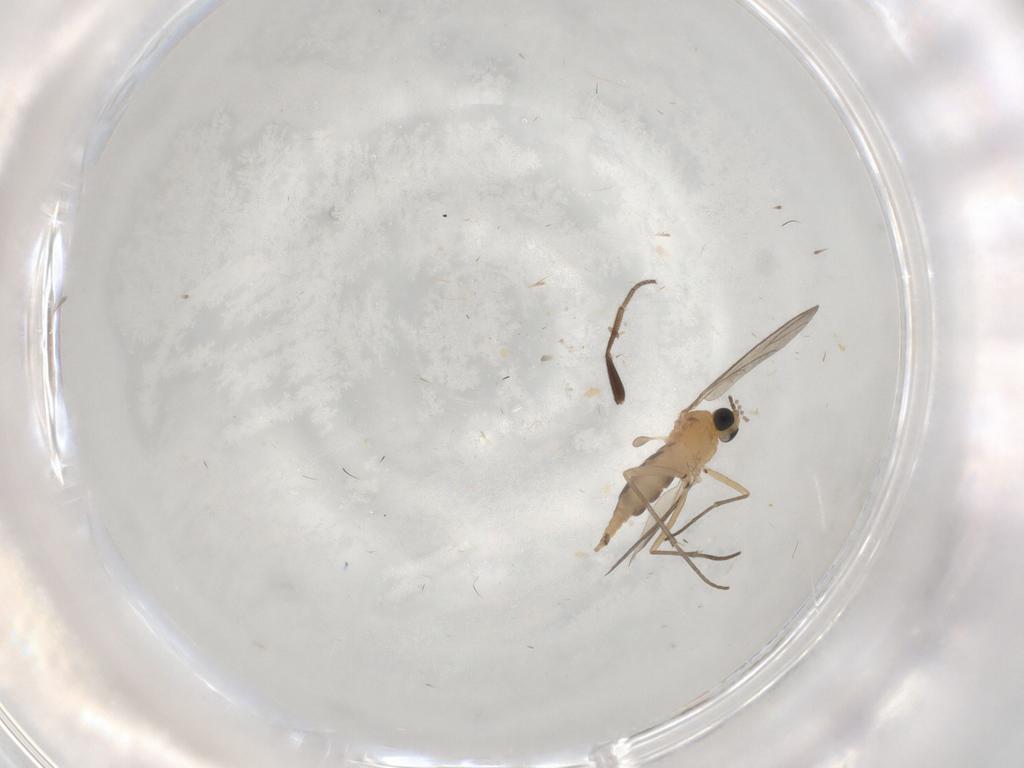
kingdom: Animalia
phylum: Arthropoda
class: Insecta
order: Diptera
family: Sciaridae
